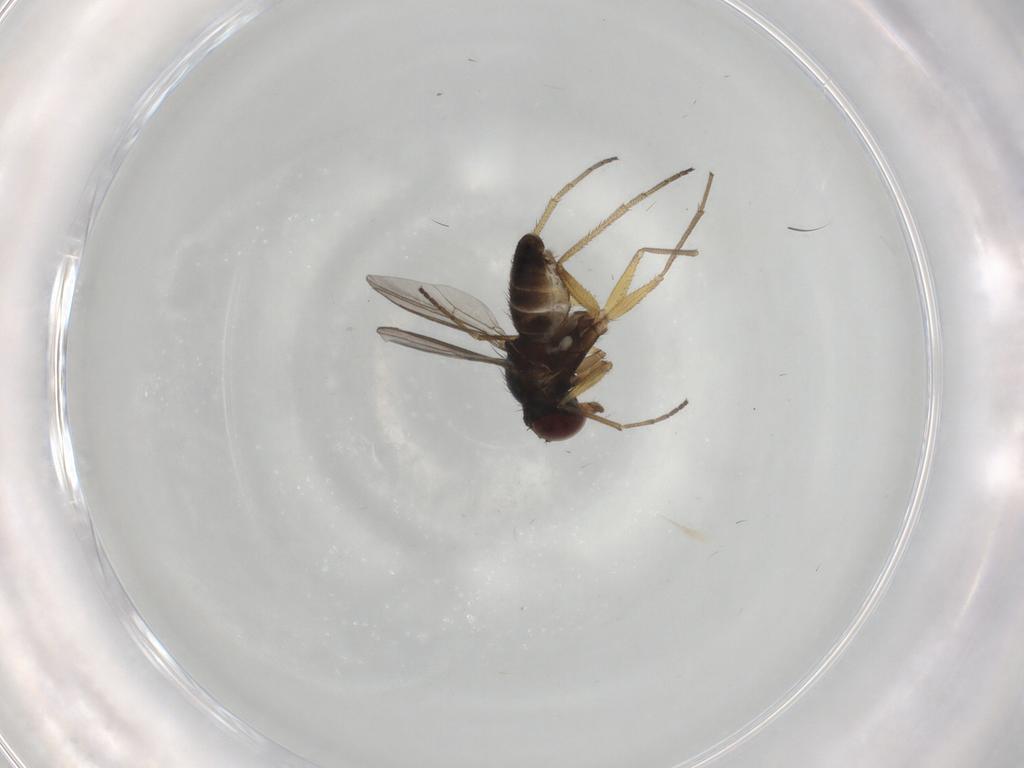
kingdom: Animalia
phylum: Arthropoda
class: Insecta
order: Diptera
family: Dolichopodidae
